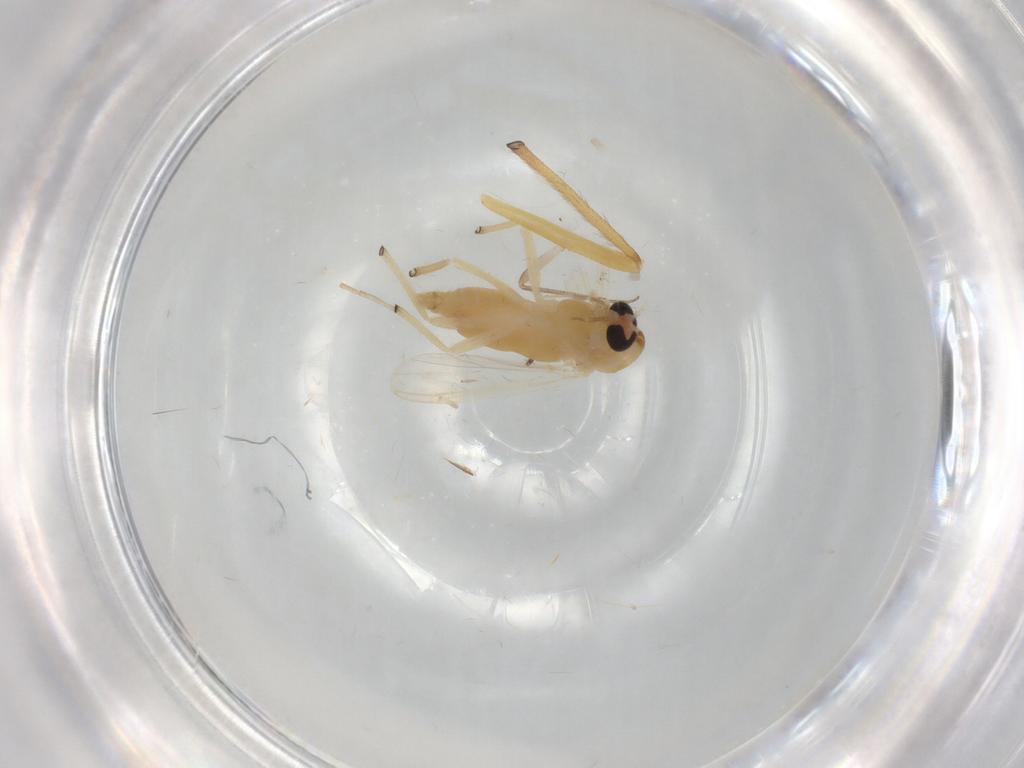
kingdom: Animalia
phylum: Arthropoda
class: Insecta
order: Diptera
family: Chironomidae
